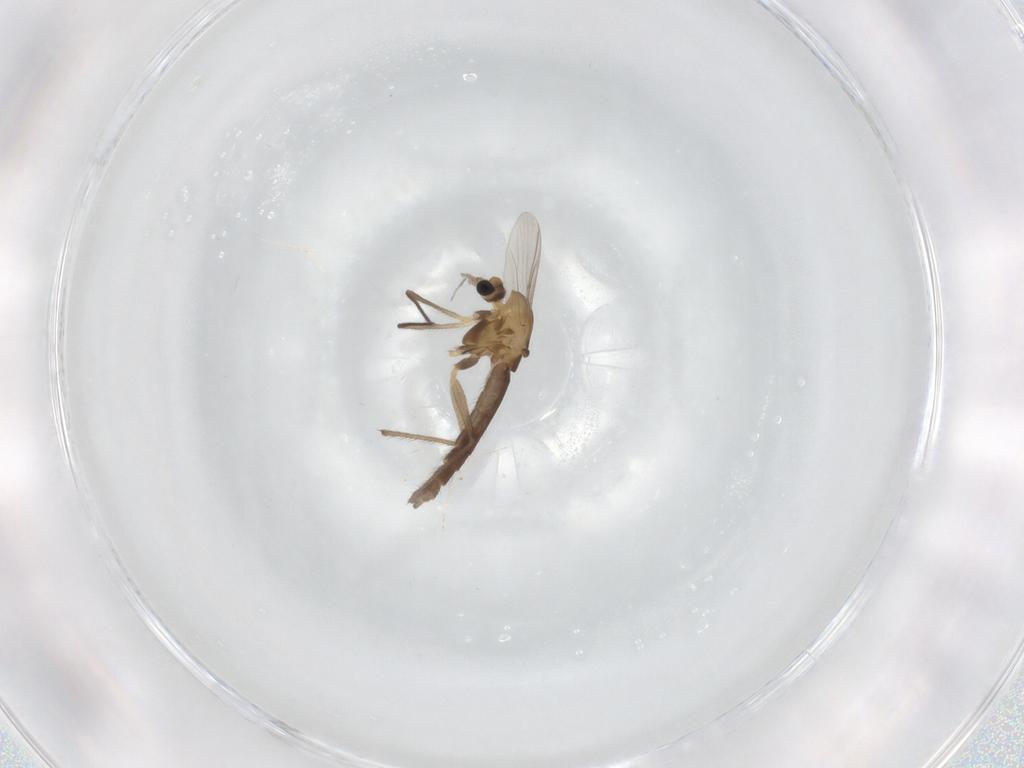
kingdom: Animalia
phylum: Arthropoda
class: Insecta
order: Diptera
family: Chironomidae
